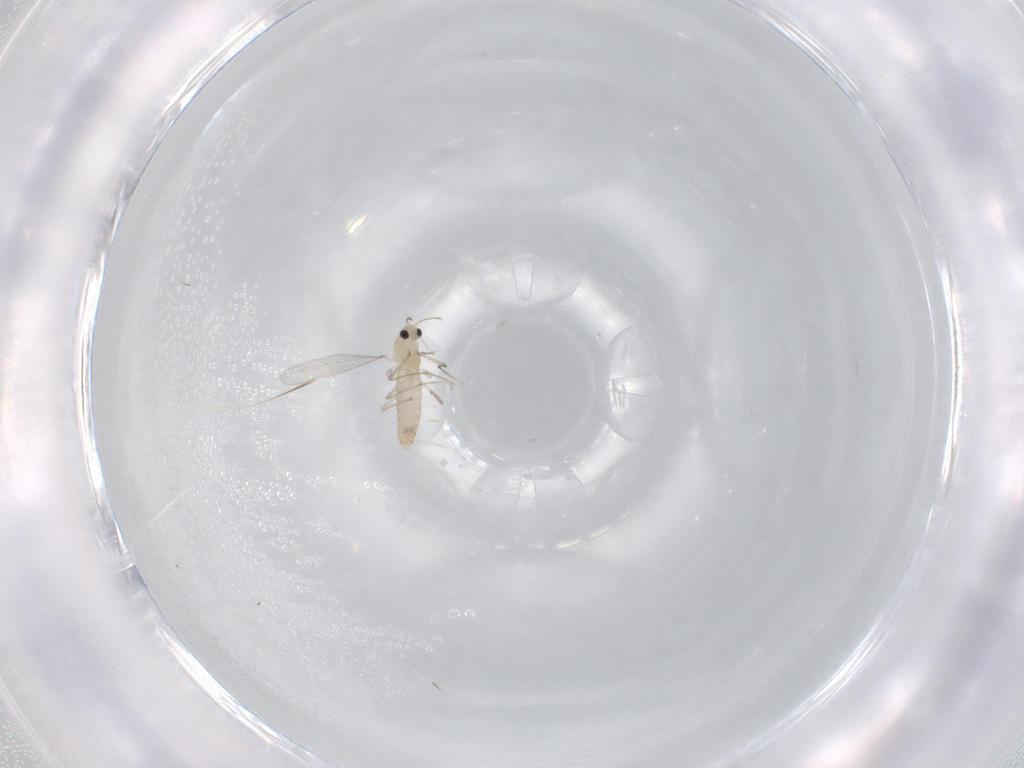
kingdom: Animalia
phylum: Arthropoda
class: Insecta
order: Diptera
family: Chironomidae
